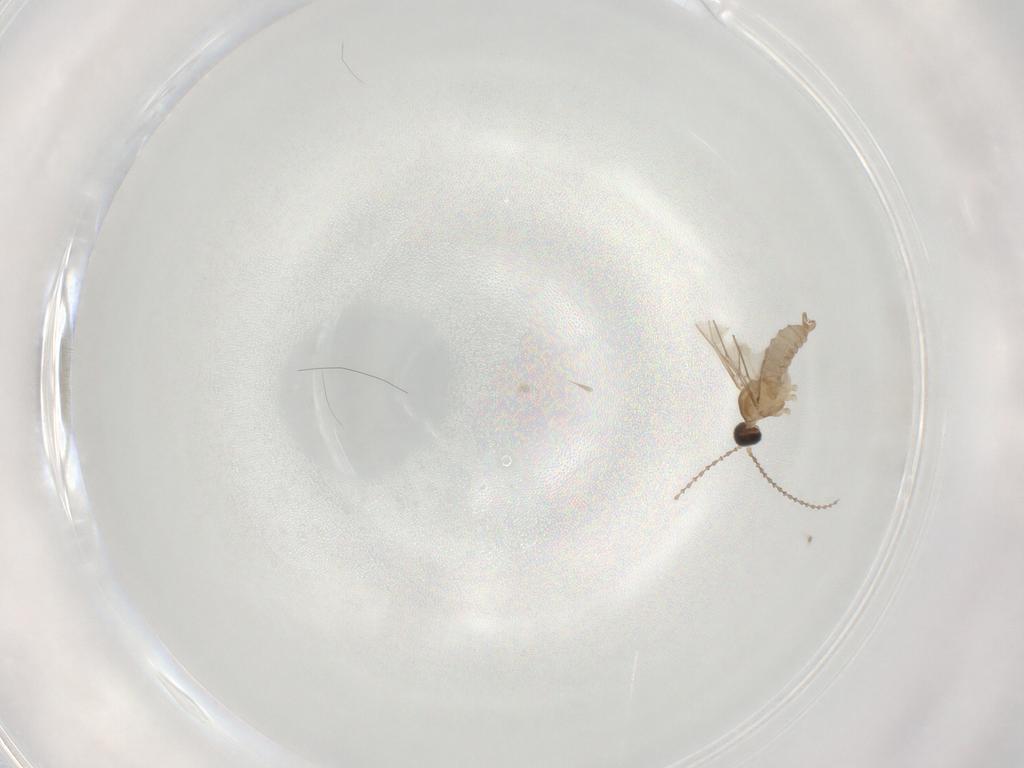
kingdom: Animalia
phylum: Arthropoda
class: Insecta
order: Diptera
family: Cecidomyiidae
